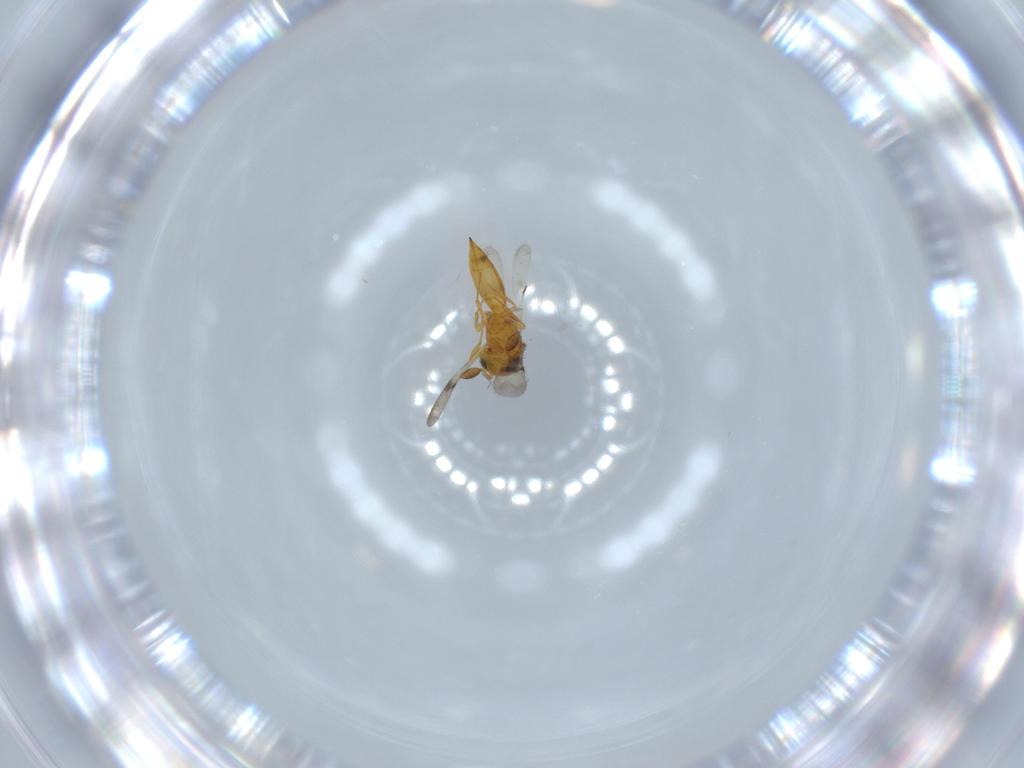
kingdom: Animalia
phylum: Arthropoda
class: Insecta
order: Hymenoptera
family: Scelionidae
